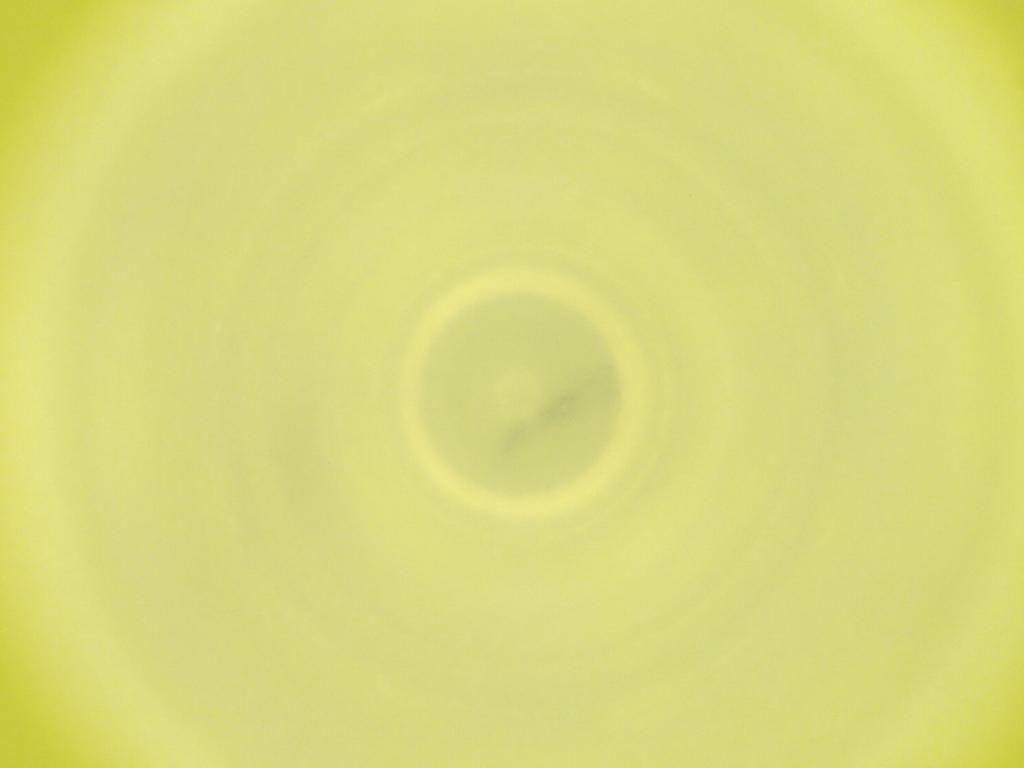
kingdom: Animalia
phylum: Arthropoda
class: Insecta
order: Diptera
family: Cecidomyiidae
